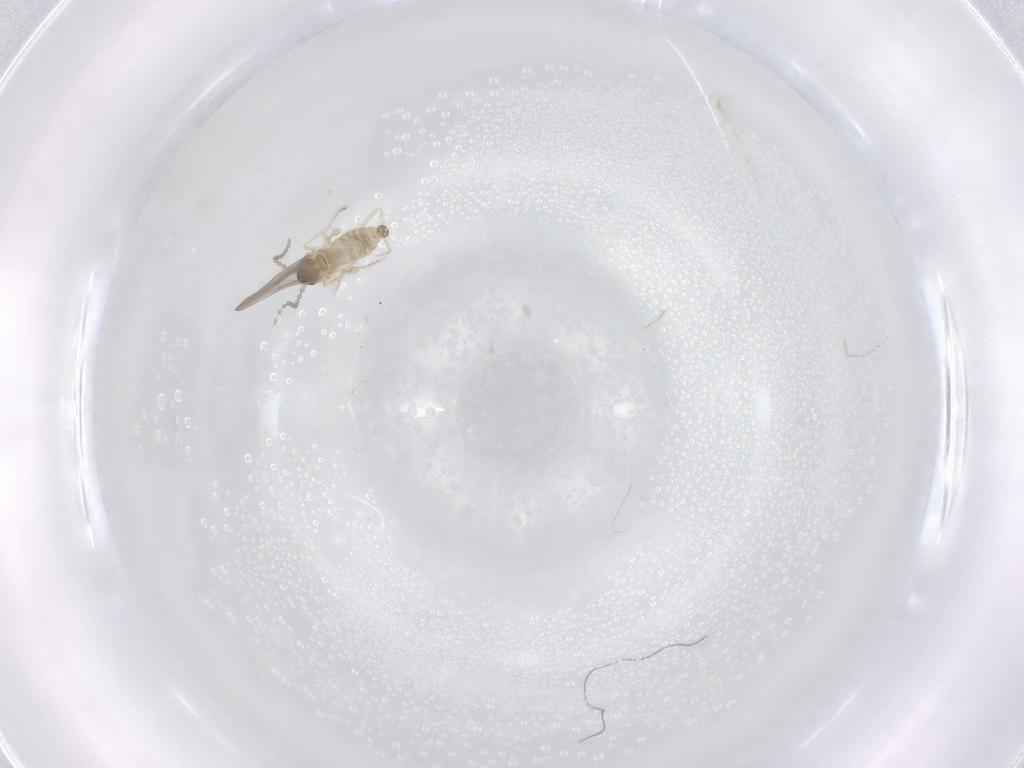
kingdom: Animalia
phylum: Arthropoda
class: Insecta
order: Diptera
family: Cecidomyiidae
